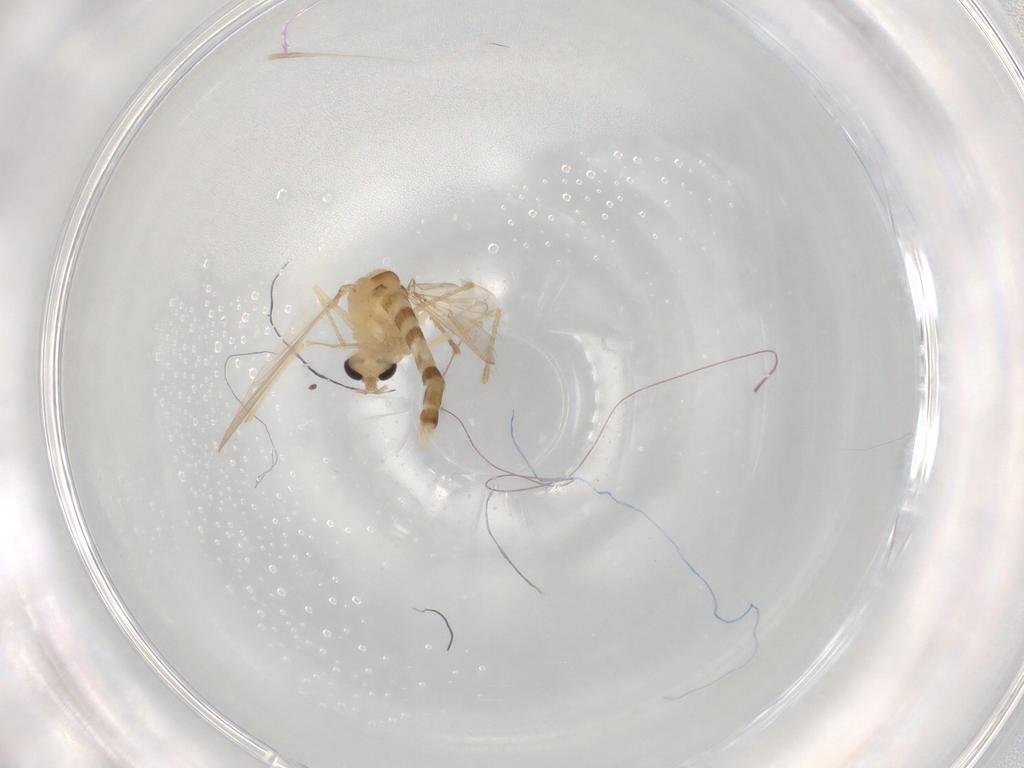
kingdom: Animalia
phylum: Arthropoda
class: Insecta
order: Diptera
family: Chironomidae
